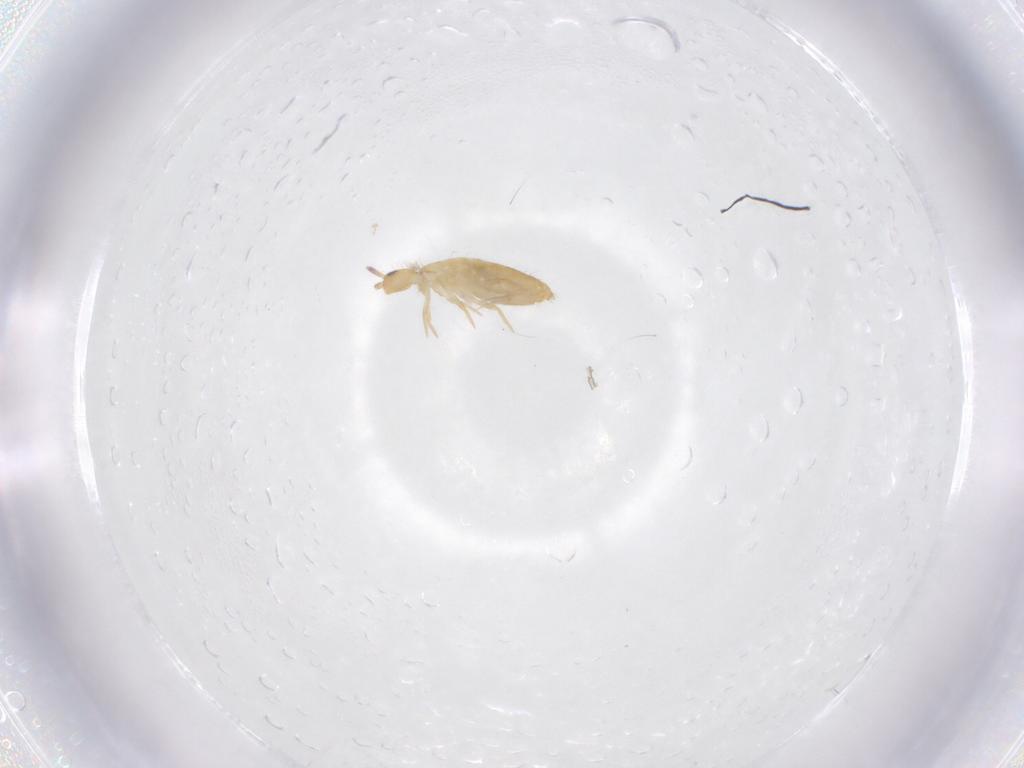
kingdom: Animalia
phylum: Arthropoda
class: Collembola
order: Entomobryomorpha
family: Entomobryidae
